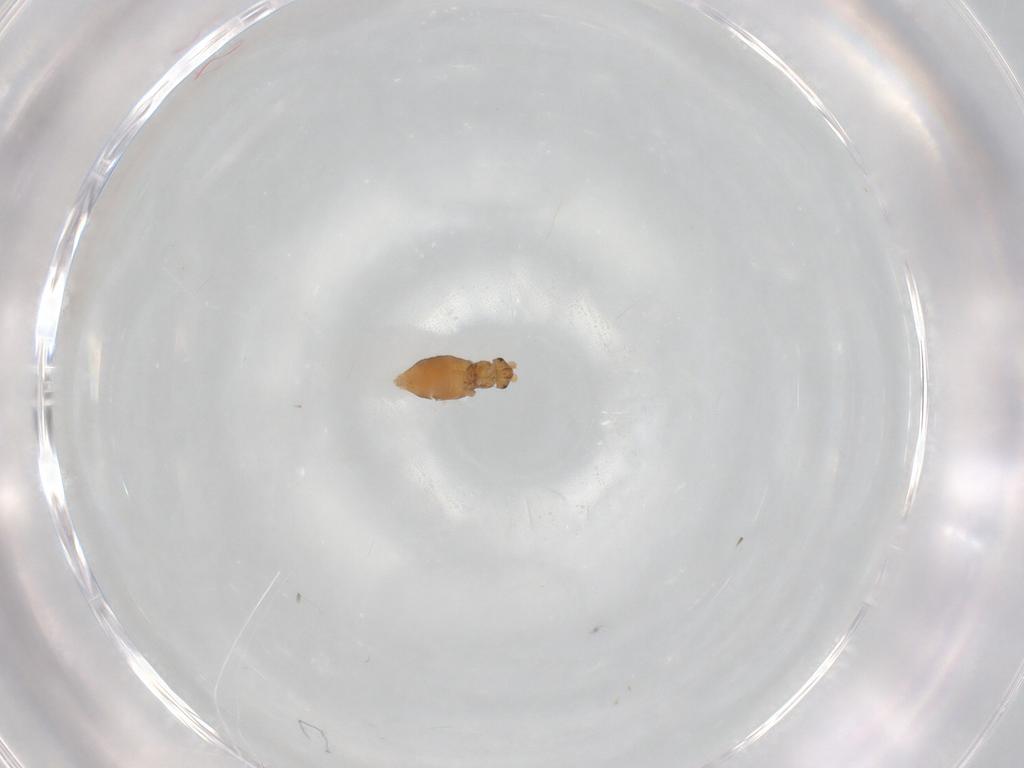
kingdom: Animalia
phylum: Arthropoda
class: Insecta
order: Diptera
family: Phoridae
